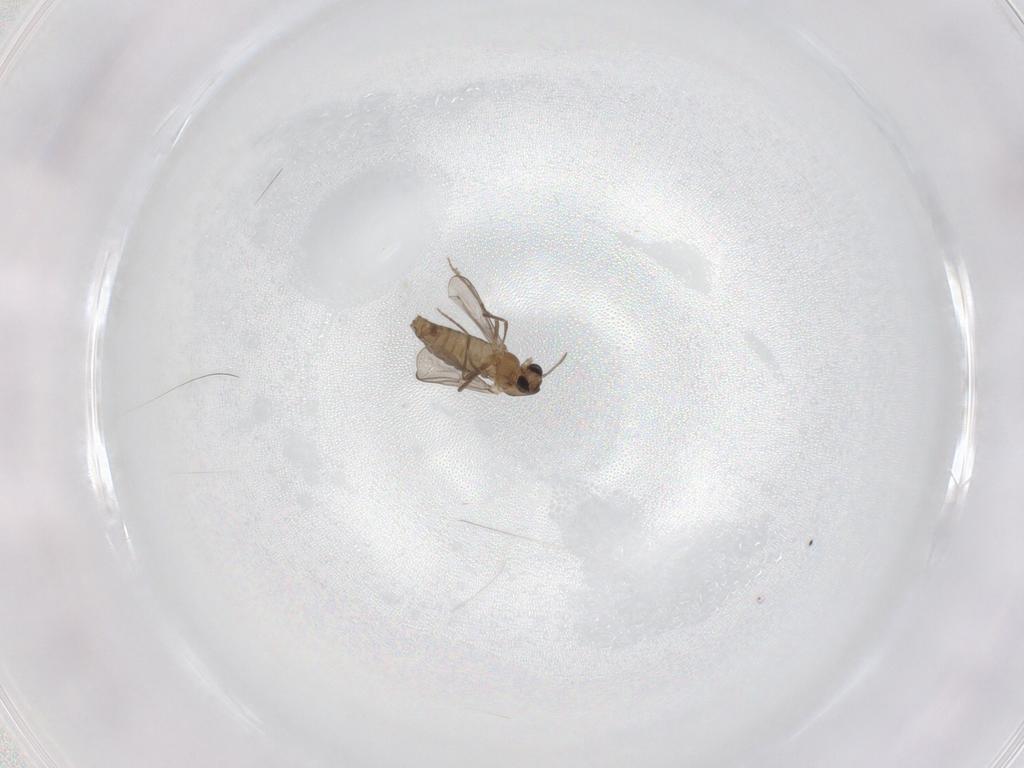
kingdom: Animalia
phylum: Arthropoda
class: Insecta
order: Diptera
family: Chironomidae
